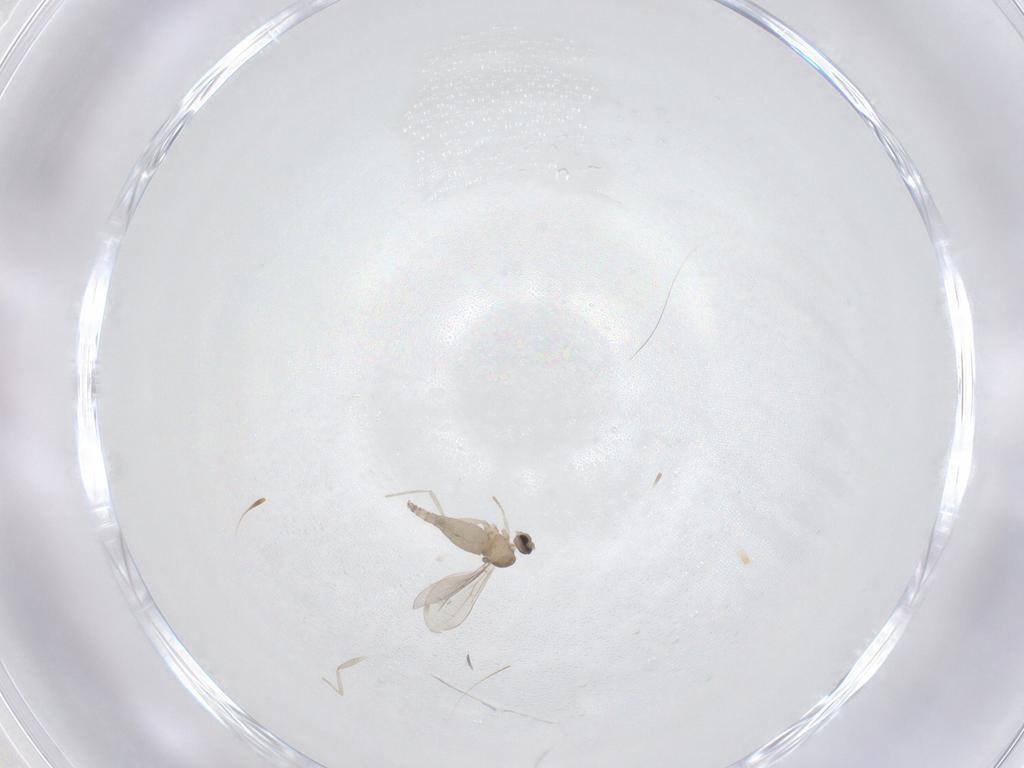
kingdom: Animalia
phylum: Arthropoda
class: Insecta
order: Diptera
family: Cecidomyiidae
